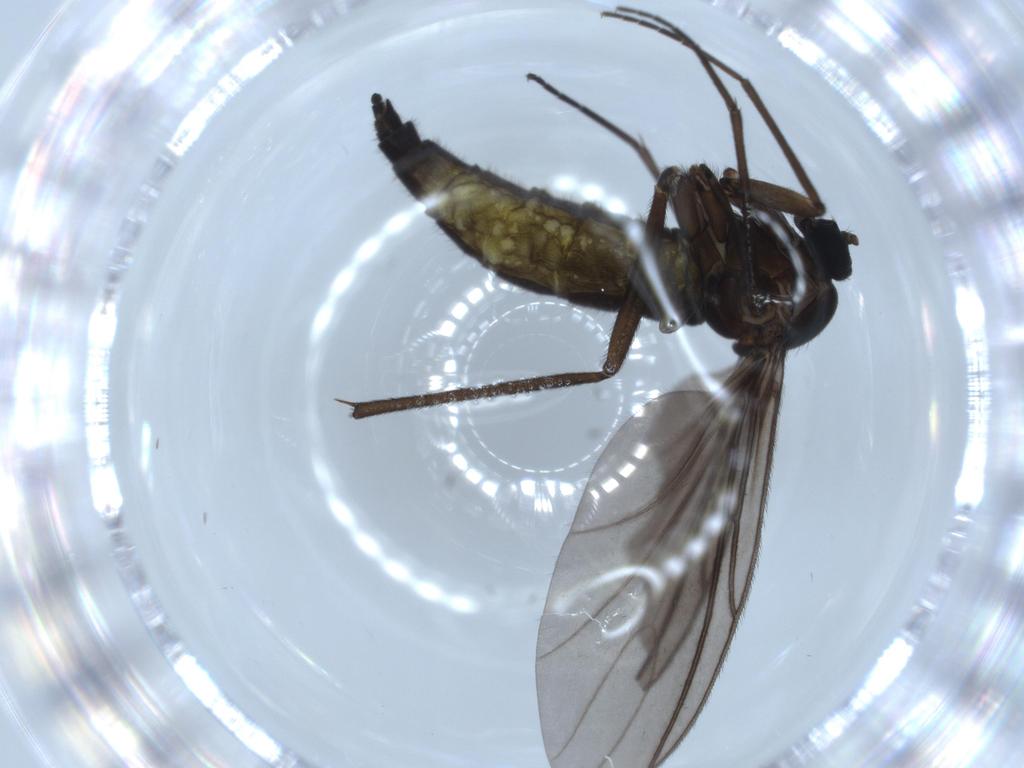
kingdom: Animalia
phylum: Arthropoda
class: Insecta
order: Diptera
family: Sciaridae
